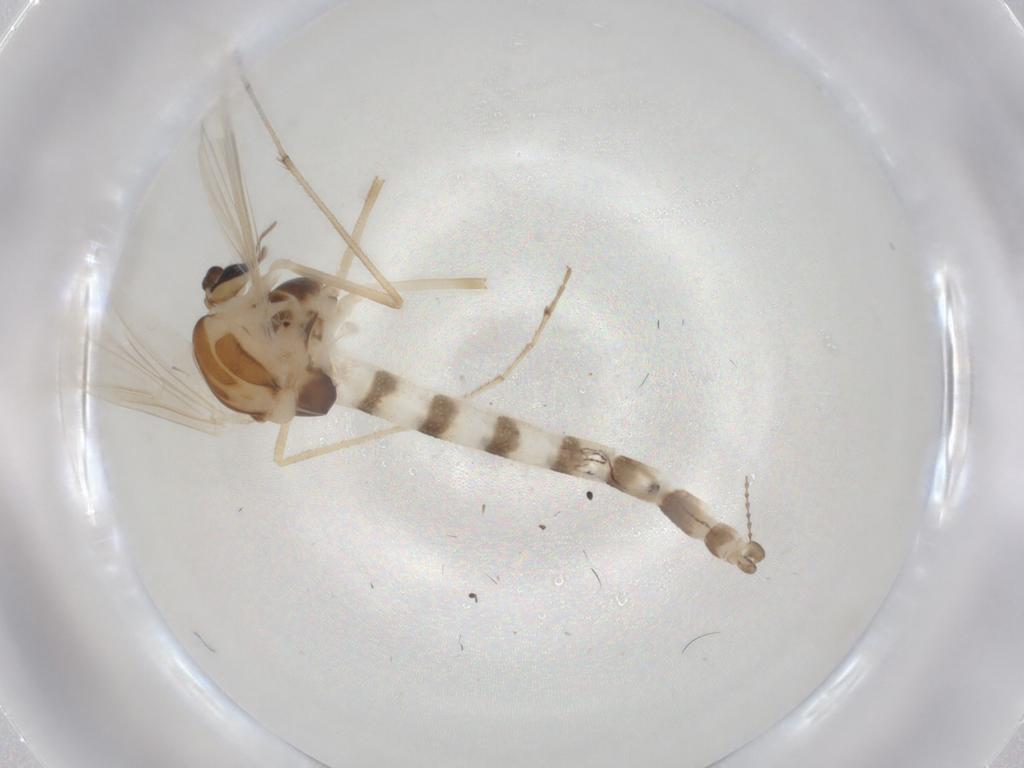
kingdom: Animalia
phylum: Arthropoda
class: Insecta
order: Diptera
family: Chironomidae
